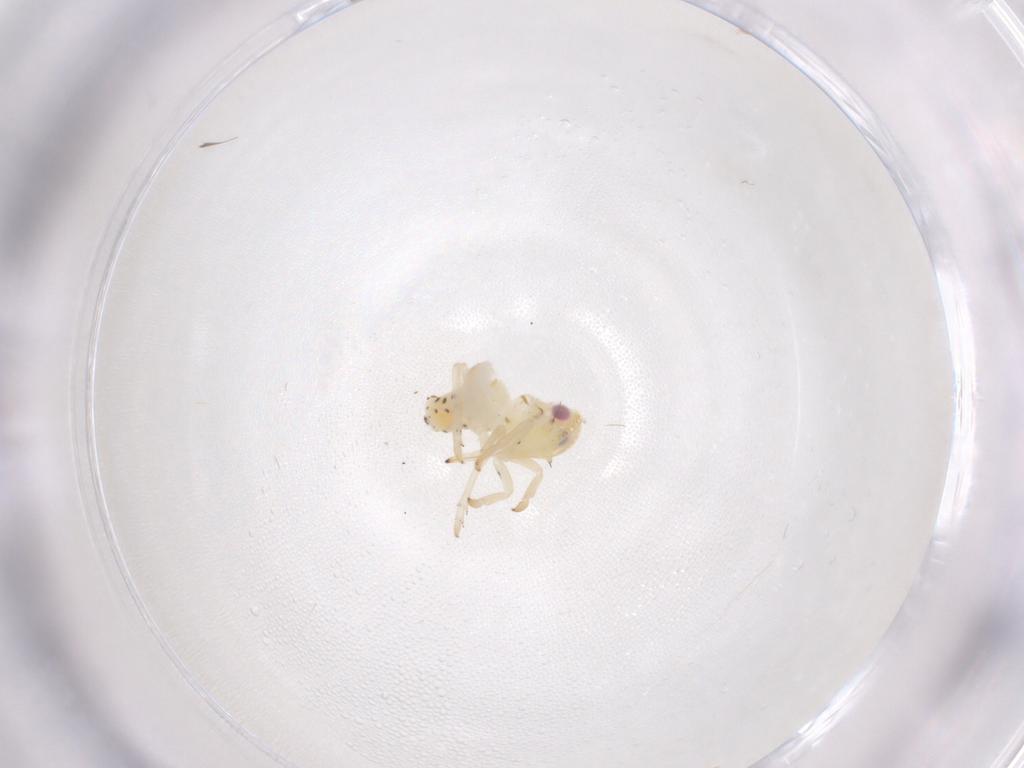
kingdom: Animalia
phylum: Arthropoda
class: Insecta
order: Hemiptera
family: Tropiduchidae
